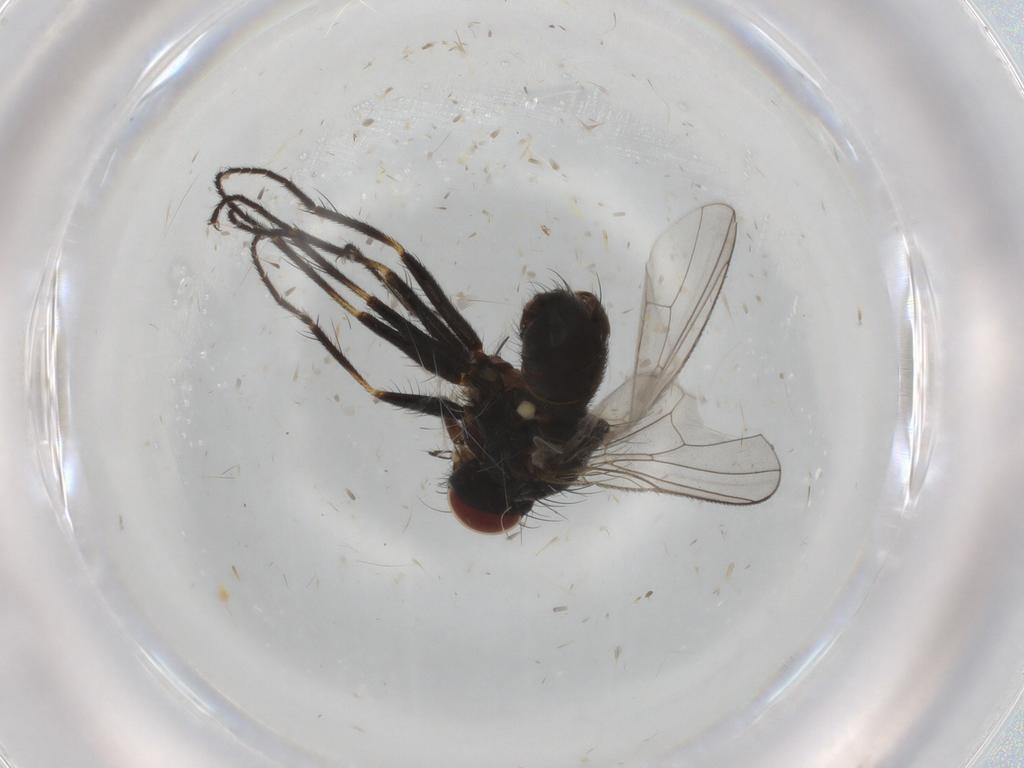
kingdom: Animalia
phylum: Arthropoda
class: Insecta
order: Diptera
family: Muscidae
